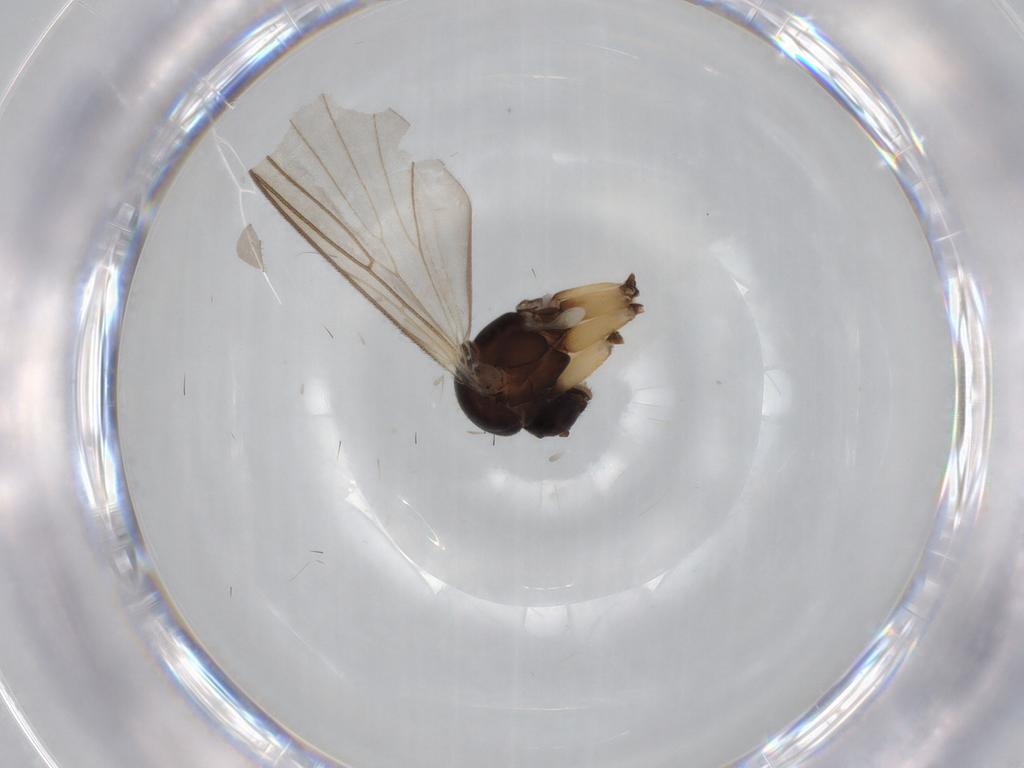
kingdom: Animalia
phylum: Arthropoda
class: Insecta
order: Diptera
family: Mycetophilidae
